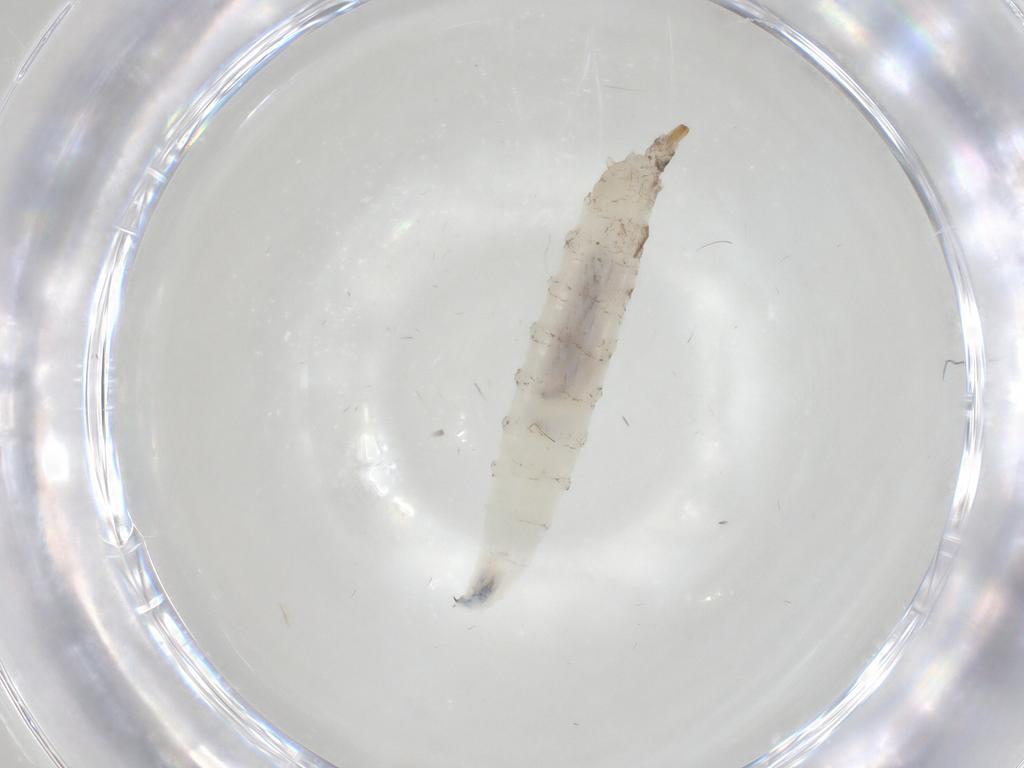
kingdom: Animalia
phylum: Arthropoda
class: Insecta
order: Diptera
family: Drosophilidae
